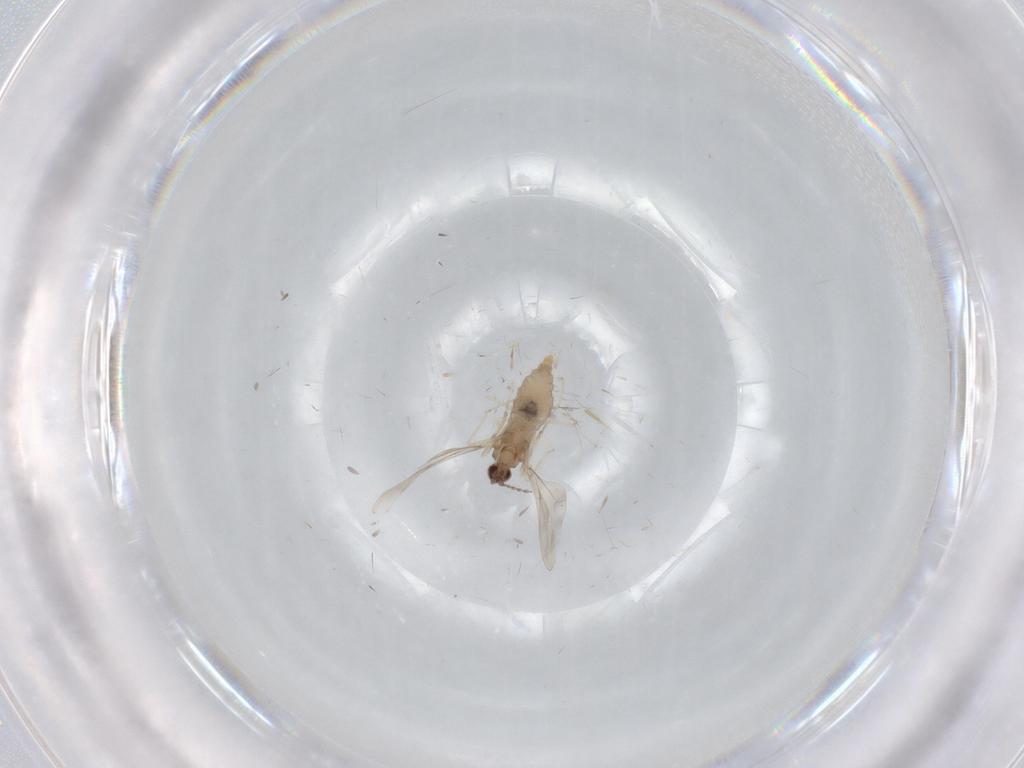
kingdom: Animalia
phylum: Arthropoda
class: Insecta
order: Diptera
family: Cecidomyiidae
